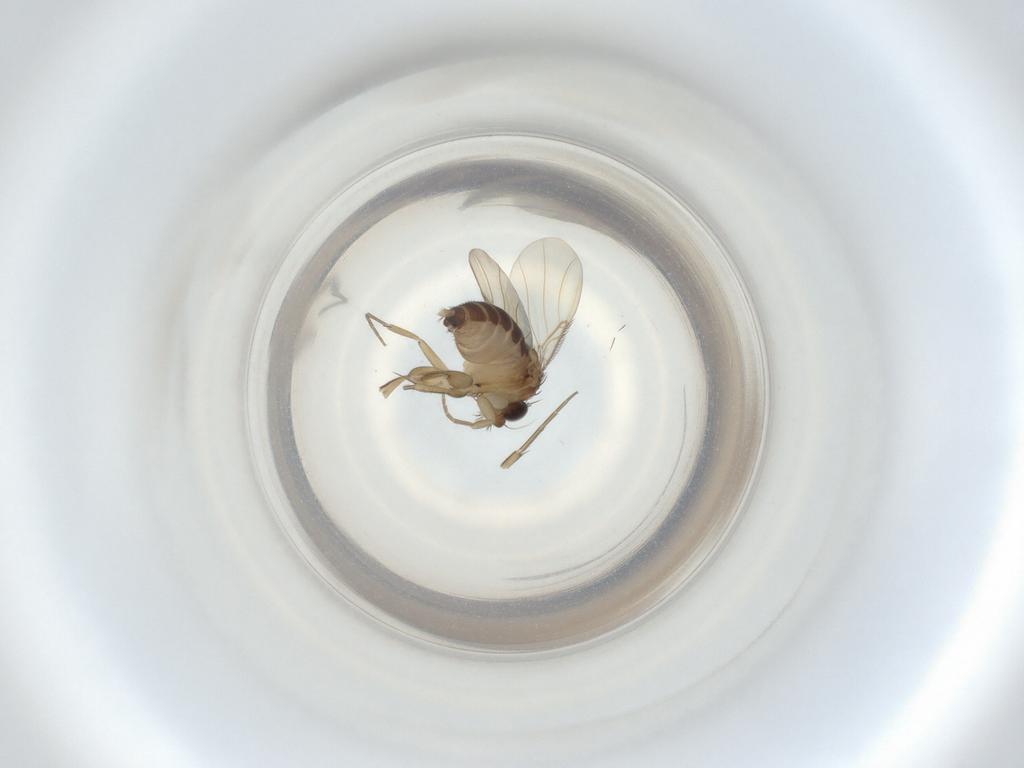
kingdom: Animalia
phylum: Arthropoda
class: Insecta
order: Diptera
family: Phoridae
